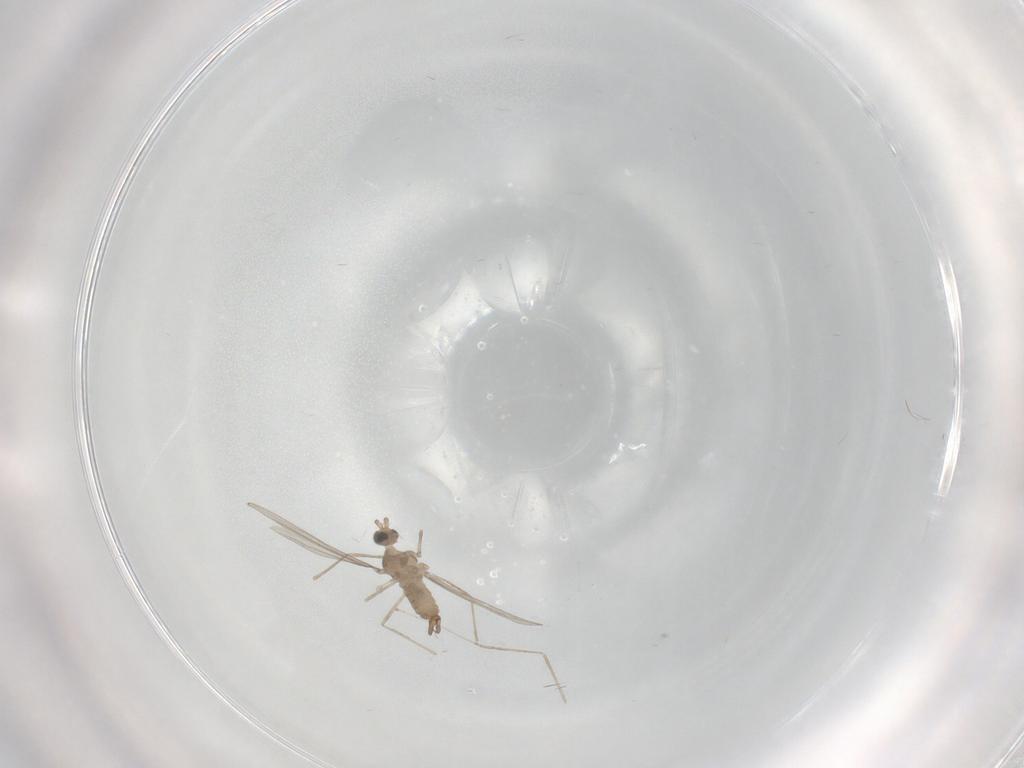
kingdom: Animalia
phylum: Arthropoda
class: Insecta
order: Diptera
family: Cecidomyiidae
